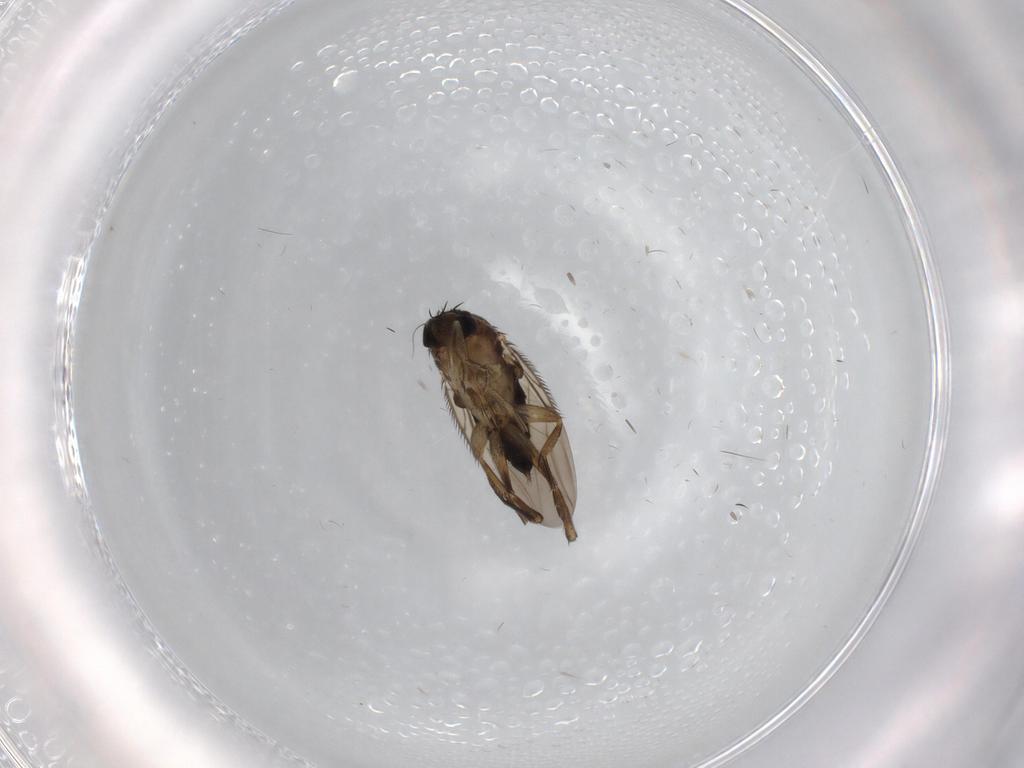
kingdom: Animalia
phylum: Arthropoda
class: Insecta
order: Diptera
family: Phoridae
